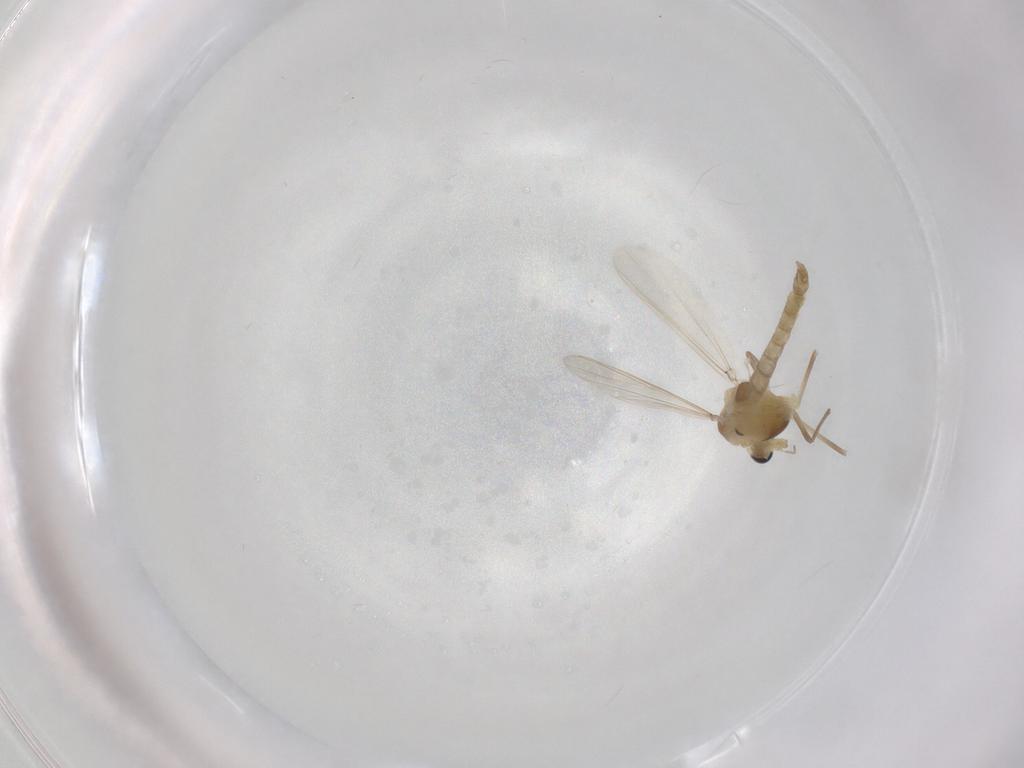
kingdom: Animalia
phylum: Arthropoda
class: Insecta
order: Diptera
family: Chironomidae
